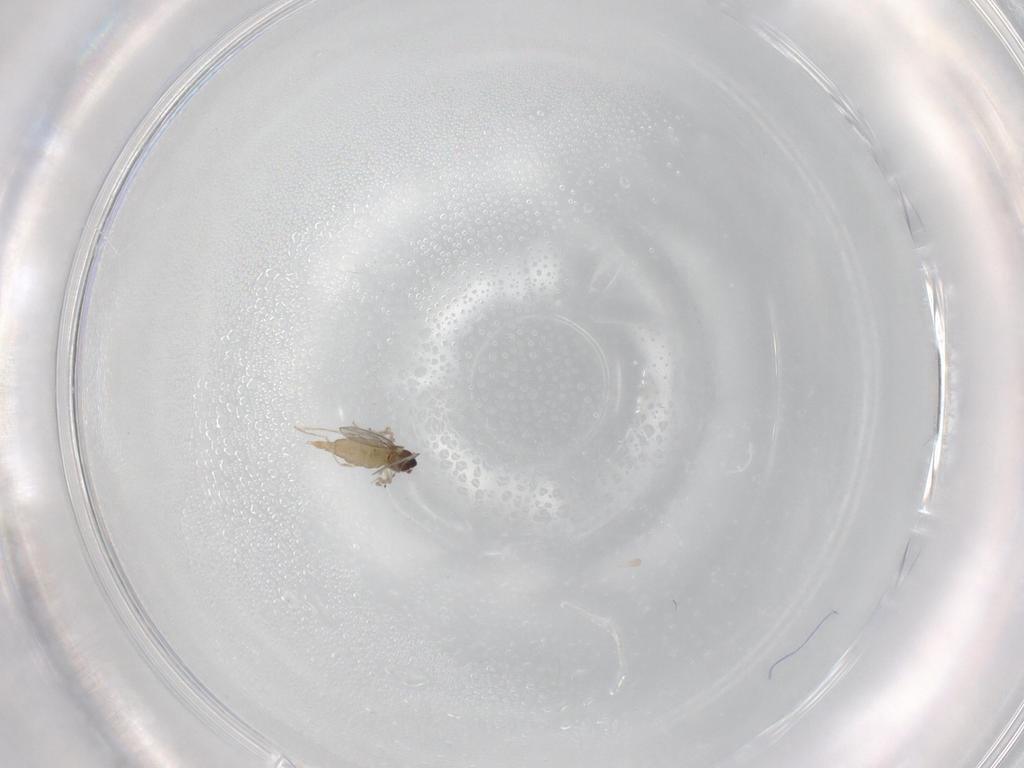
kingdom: Animalia
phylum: Arthropoda
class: Insecta
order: Diptera
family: Cecidomyiidae
